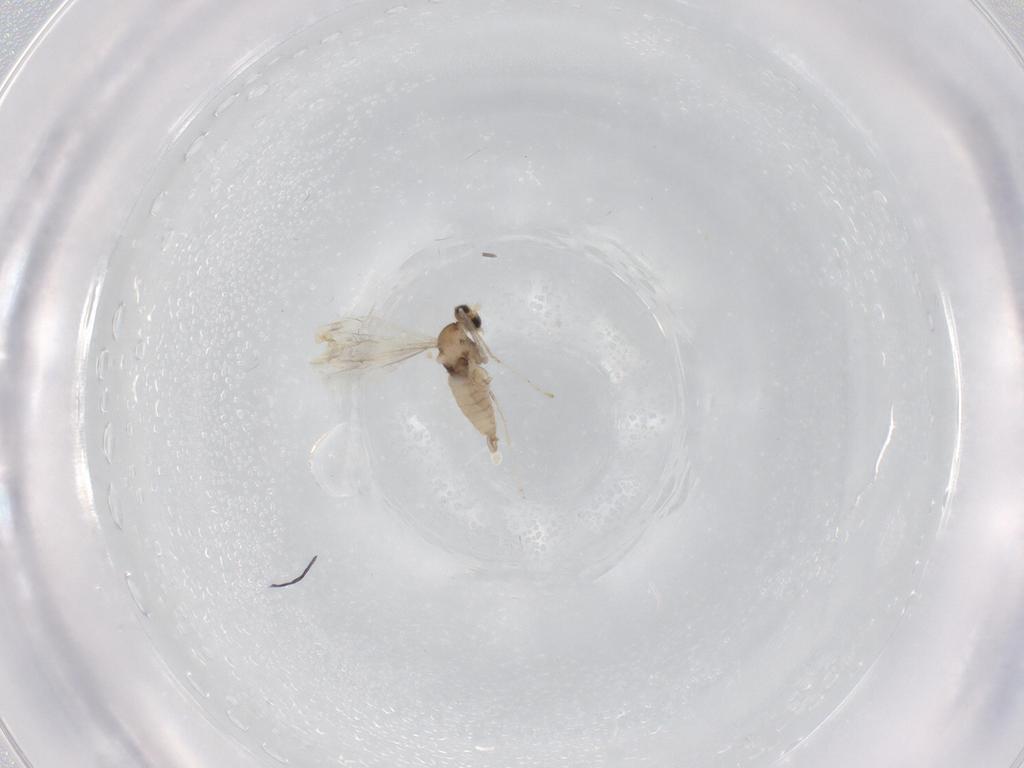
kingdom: Animalia
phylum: Arthropoda
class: Insecta
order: Diptera
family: Cecidomyiidae
